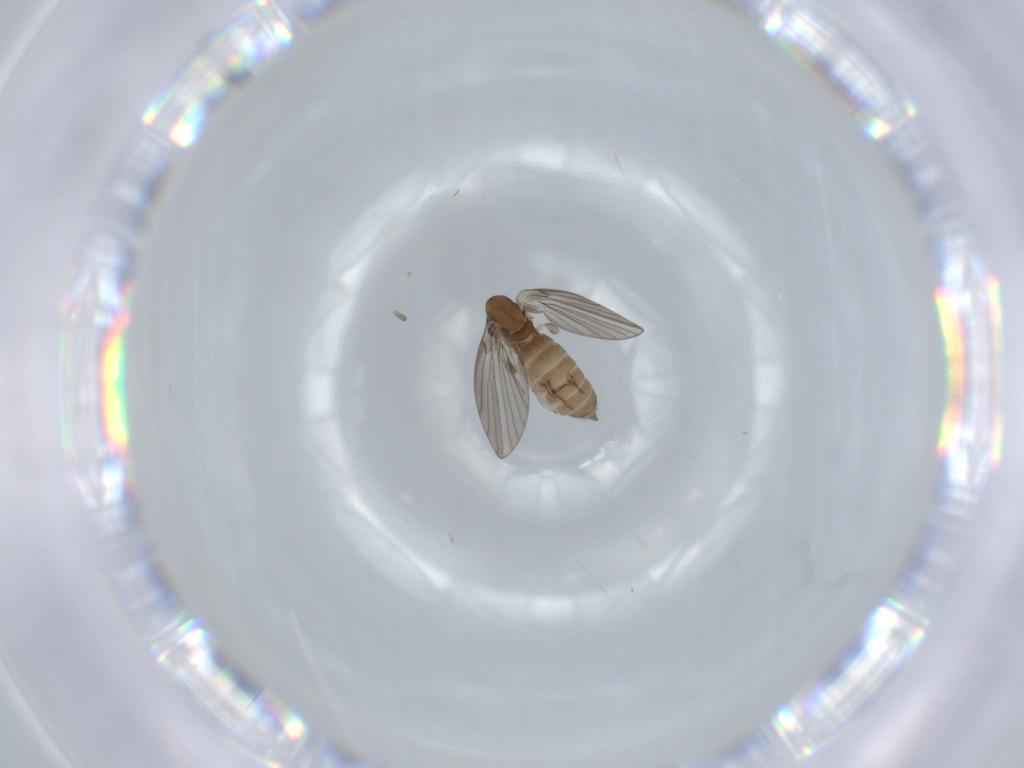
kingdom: Animalia
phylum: Arthropoda
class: Insecta
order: Diptera
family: Psychodidae
